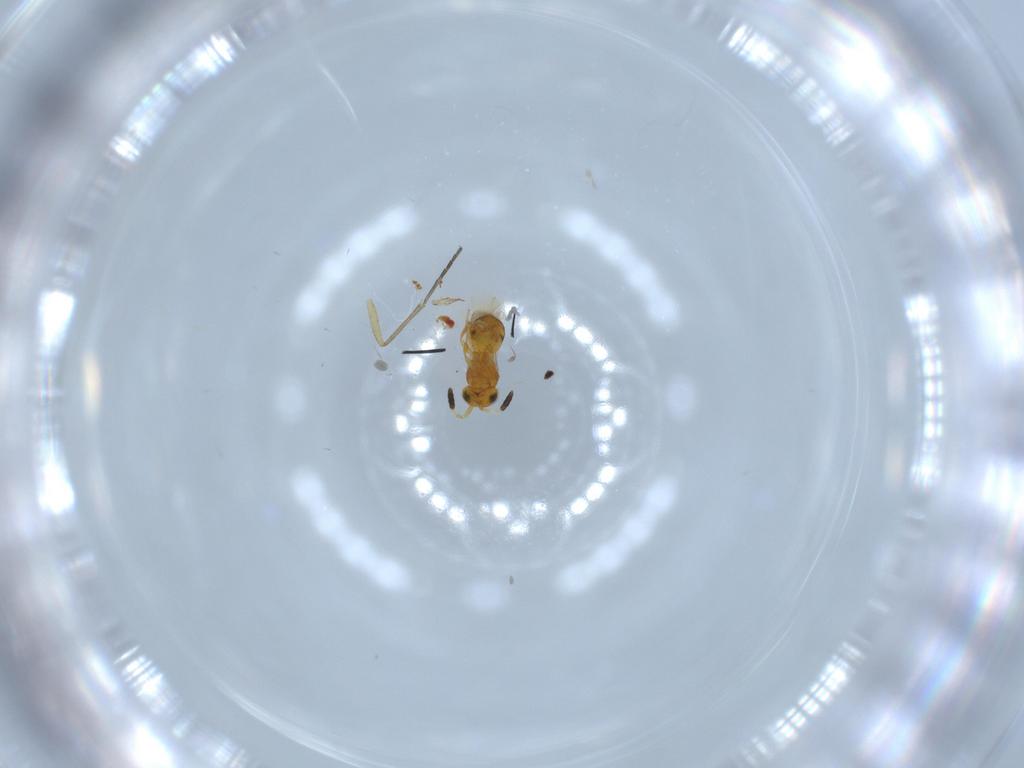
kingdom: Animalia
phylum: Arthropoda
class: Insecta
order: Hymenoptera
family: Scelionidae
